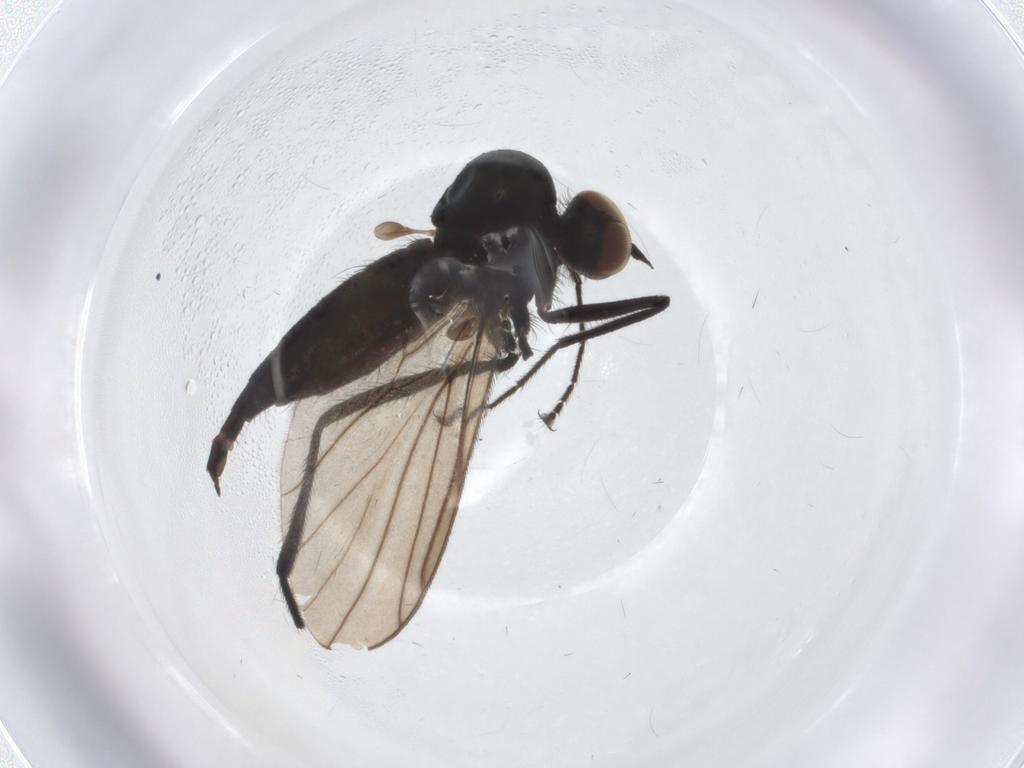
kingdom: Animalia
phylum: Arthropoda
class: Insecta
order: Diptera
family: Hybotidae
